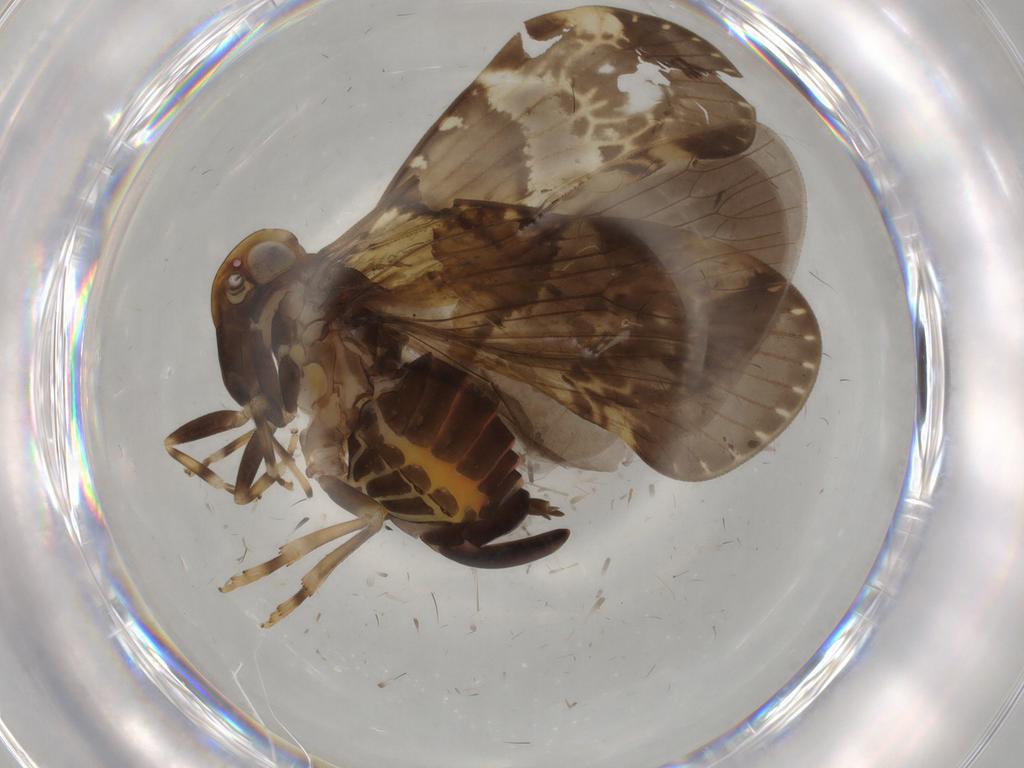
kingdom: Animalia
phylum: Arthropoda
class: Insecta
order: Hemiptera
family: Cixiidae
